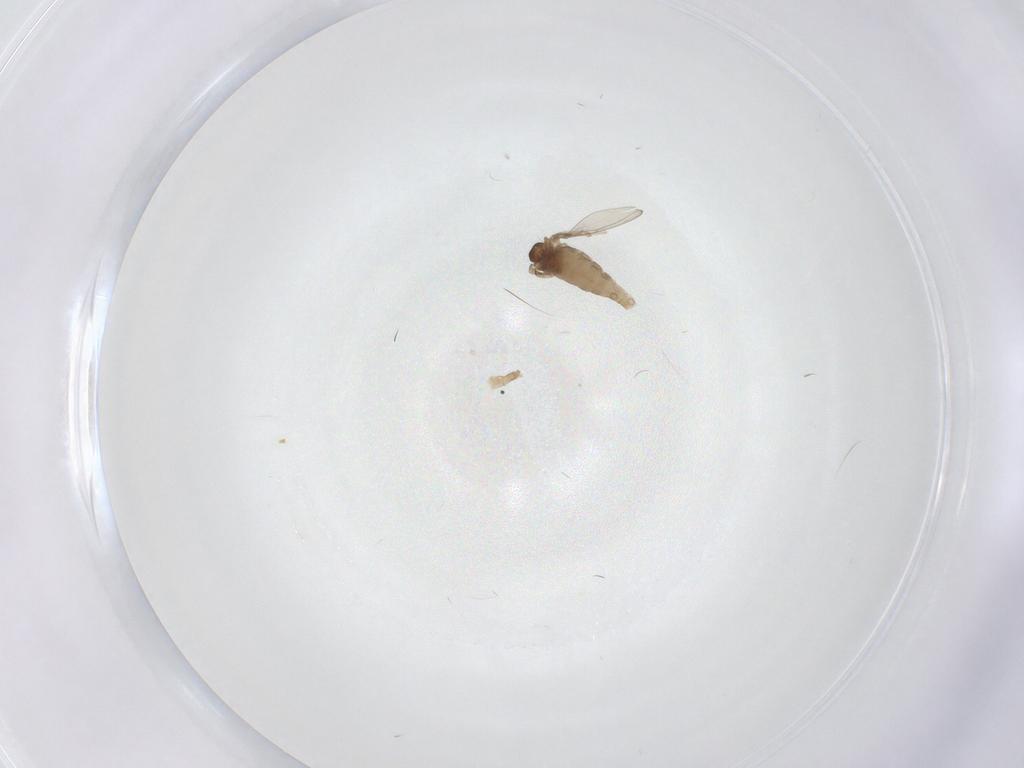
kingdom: Animalia
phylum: Arthropoda
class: Insecta
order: Diptera
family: Cecidomyiidae
